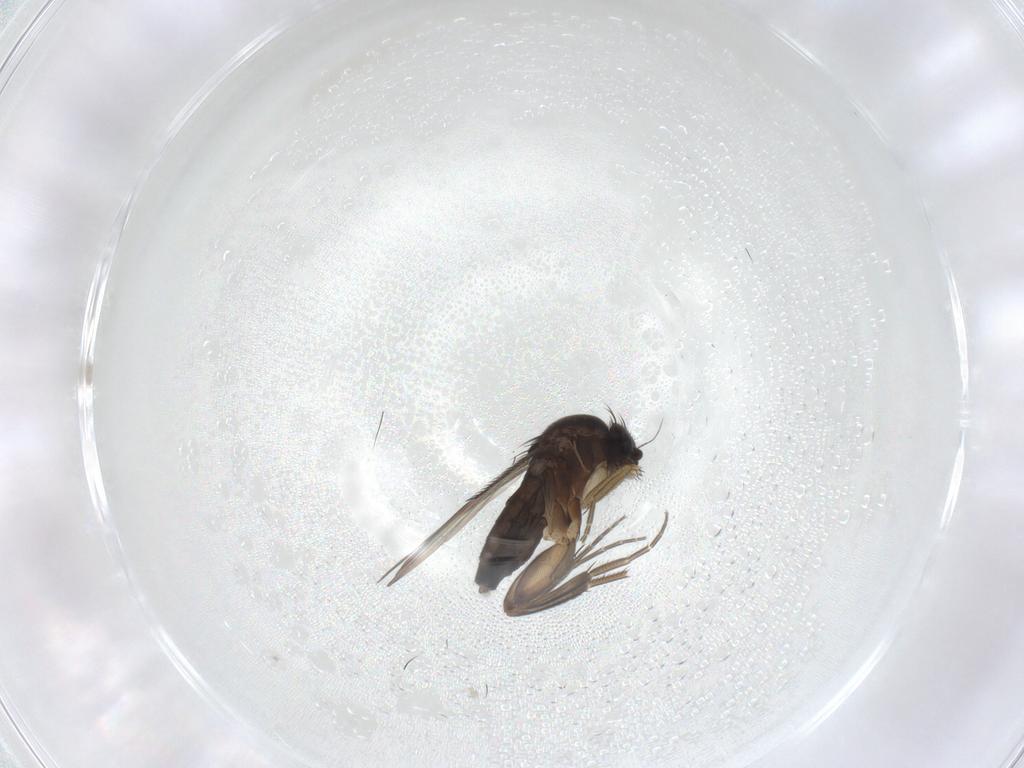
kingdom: Animalia
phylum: Arthropoda
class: Insecta
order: Diptera
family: Phoridae
